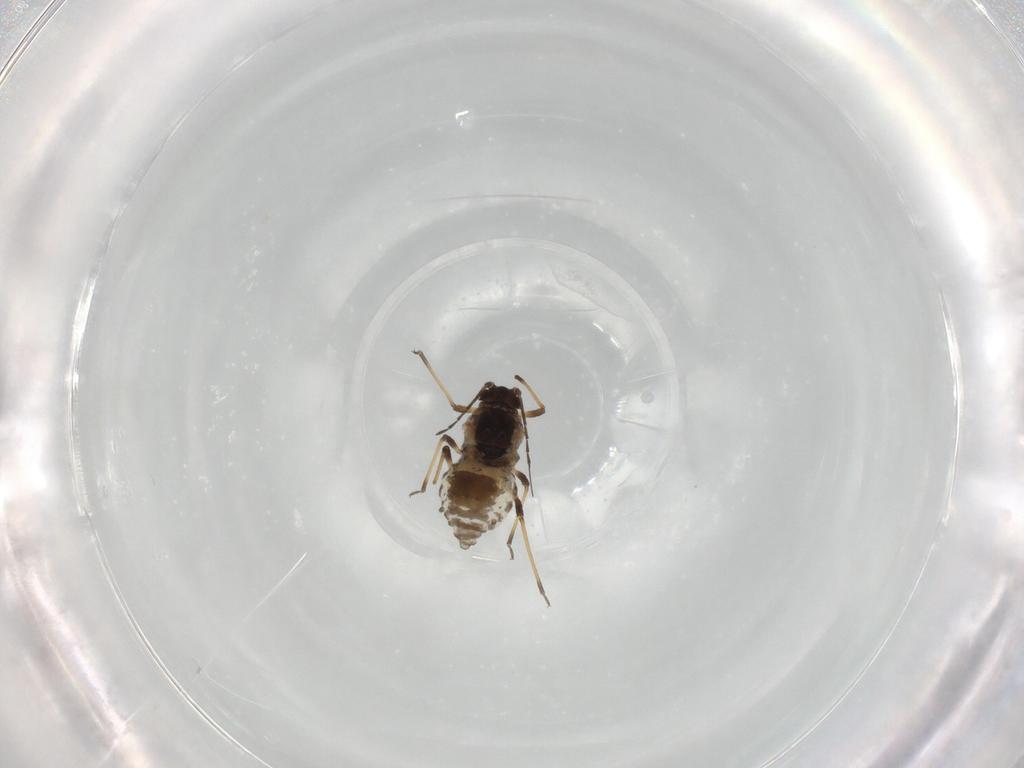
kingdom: Animalia
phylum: Arthropoda
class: Insecta
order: Hemiptera
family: Aphididae
